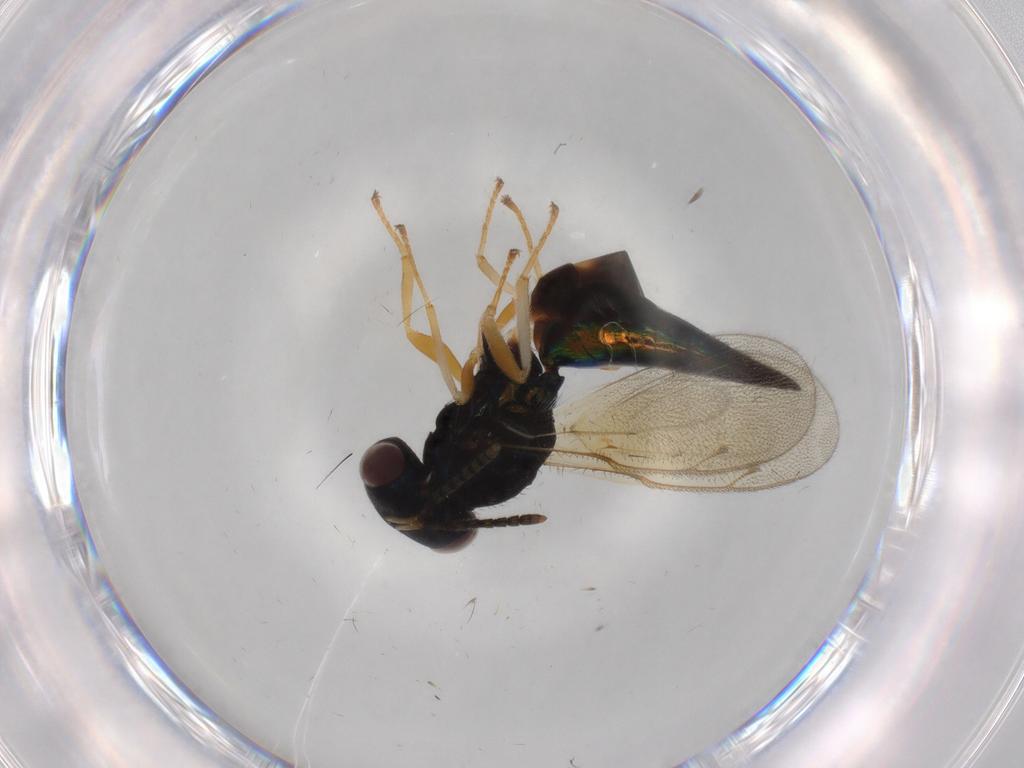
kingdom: Animalia
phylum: Arthropoda
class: Insecta
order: Hymenoptera
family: Pteromalidae
